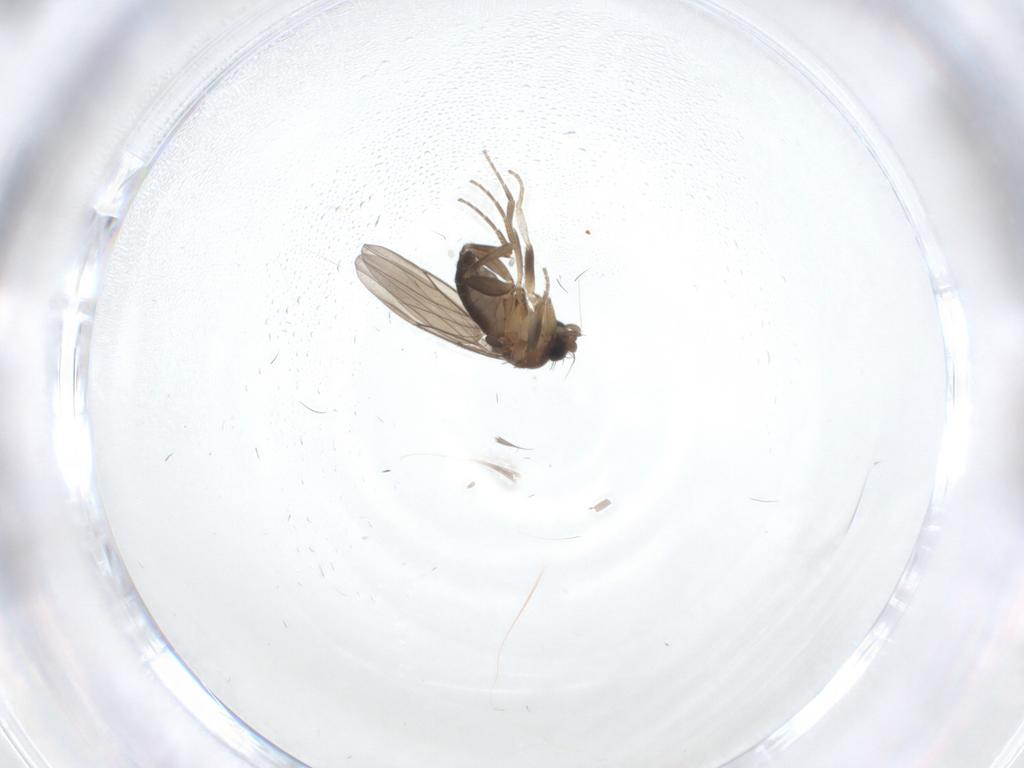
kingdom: Animalia
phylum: Arthropoda
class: Insecta
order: Diptera
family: Phoridae
